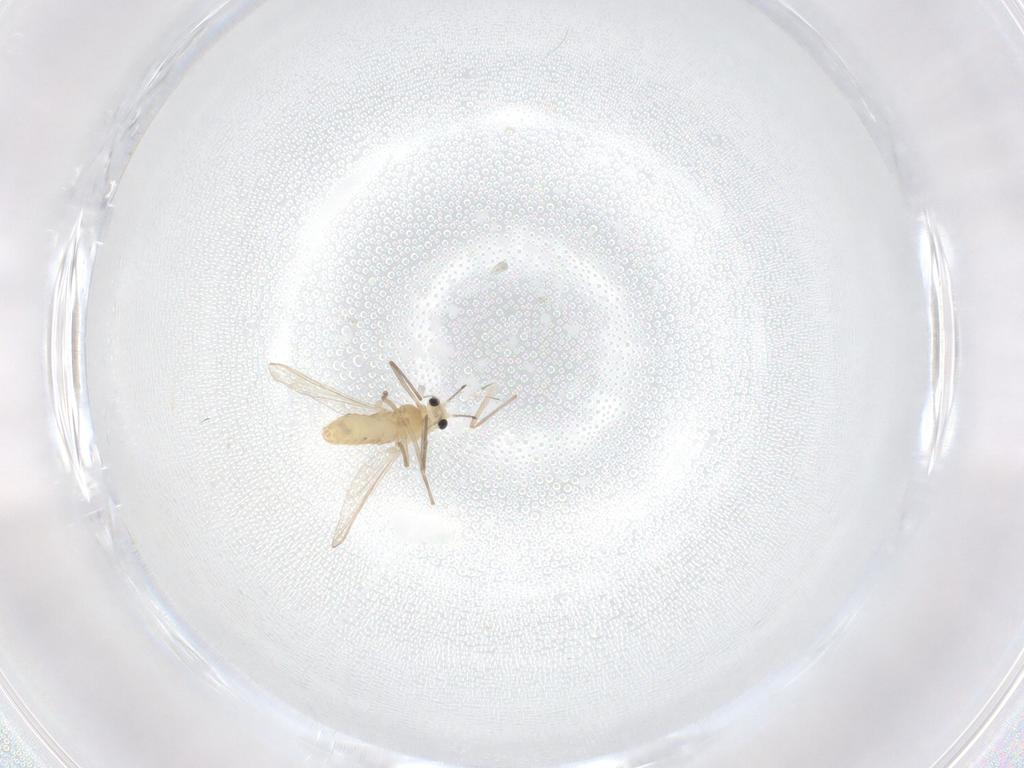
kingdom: Animalia
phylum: Arthropoda
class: Insecta
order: Diptera
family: Chironomidae
